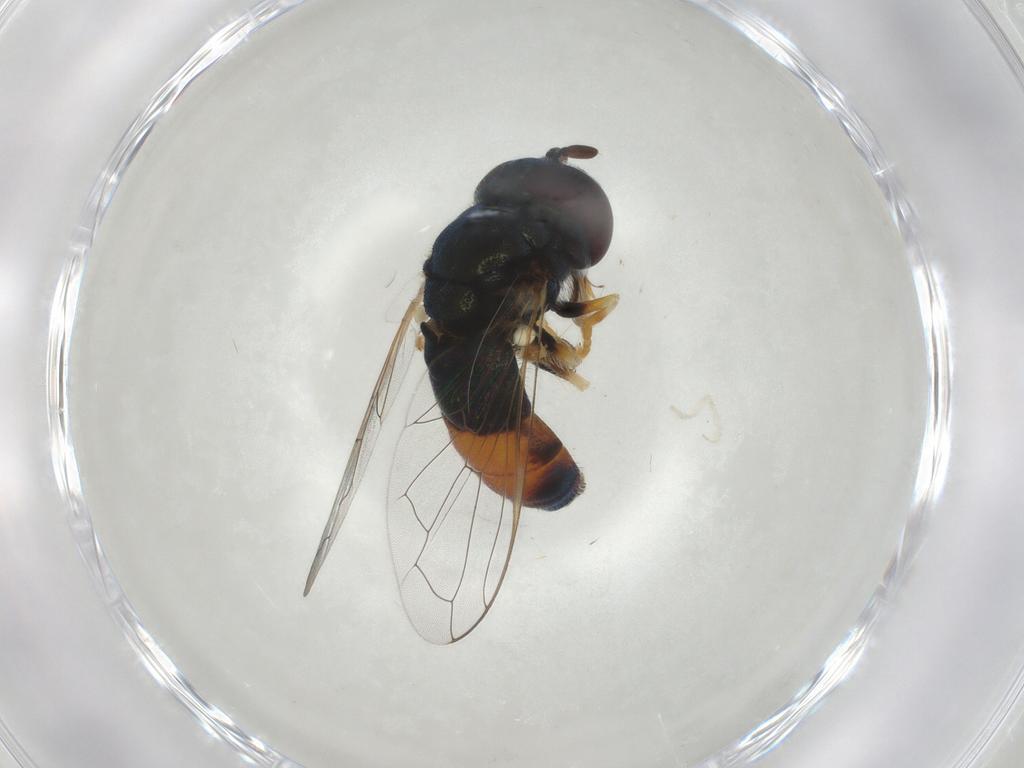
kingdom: Animalia
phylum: Arthropoda
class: Insecta
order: Diptera
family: Syrphidae
